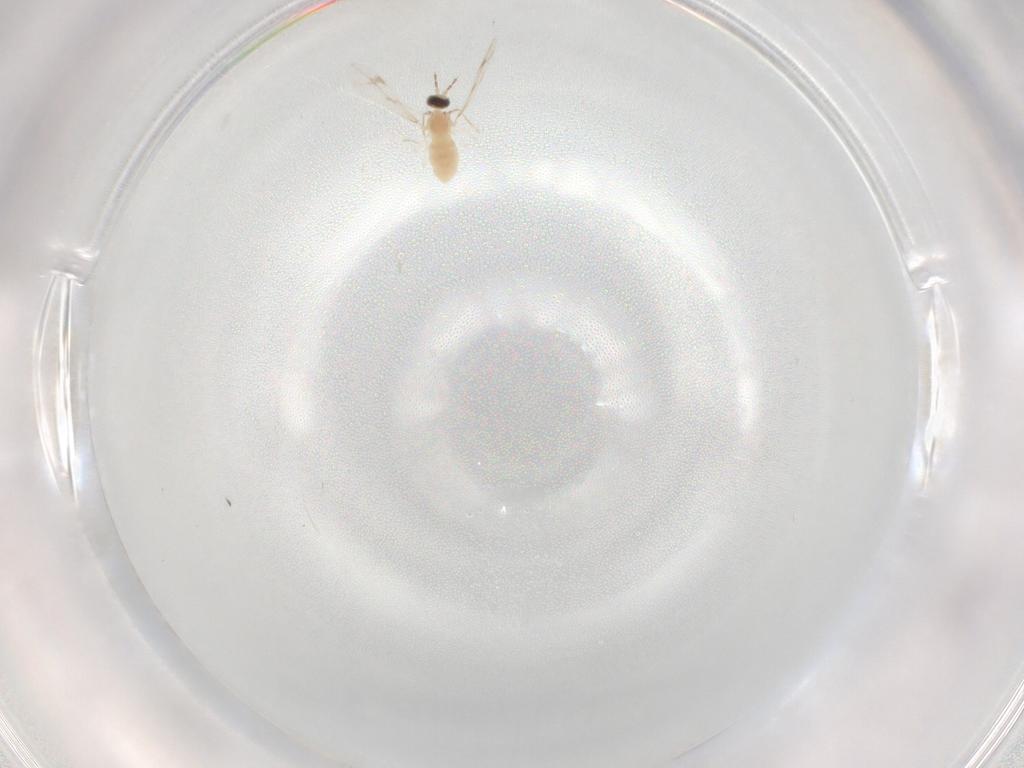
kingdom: Animalia
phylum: Arthropoda
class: Insecta
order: Diptera
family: Cecidomyiidae
